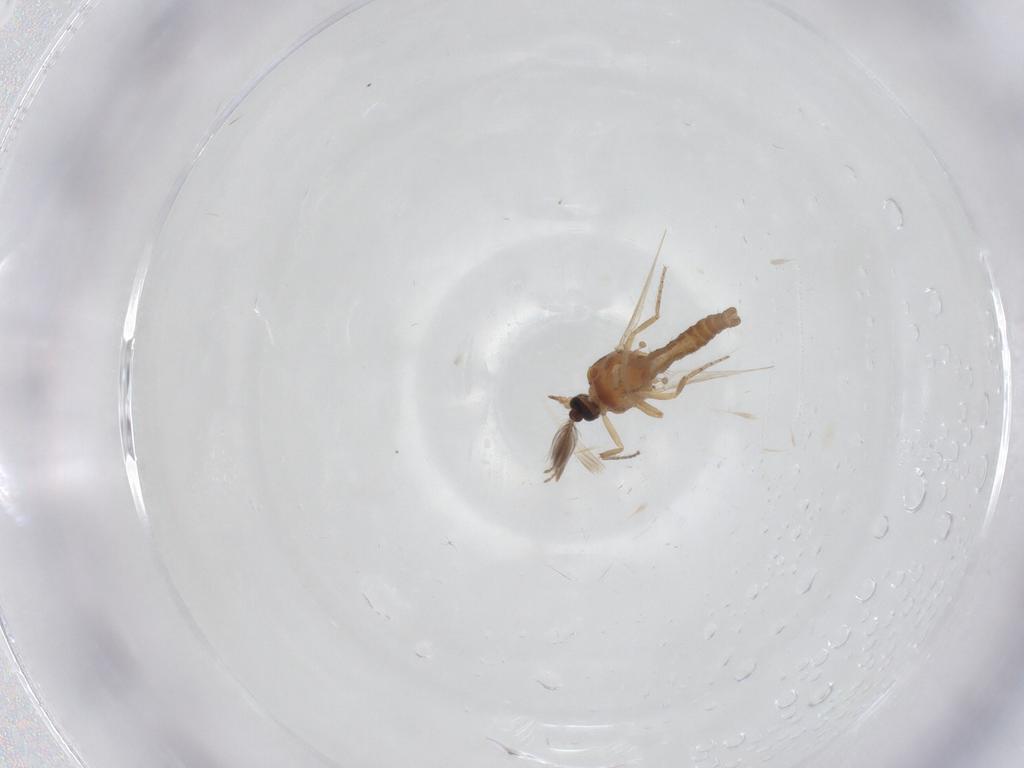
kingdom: Animalia
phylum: Arthropoda
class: Insecta
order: Diptera
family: Ceratopogonidae
